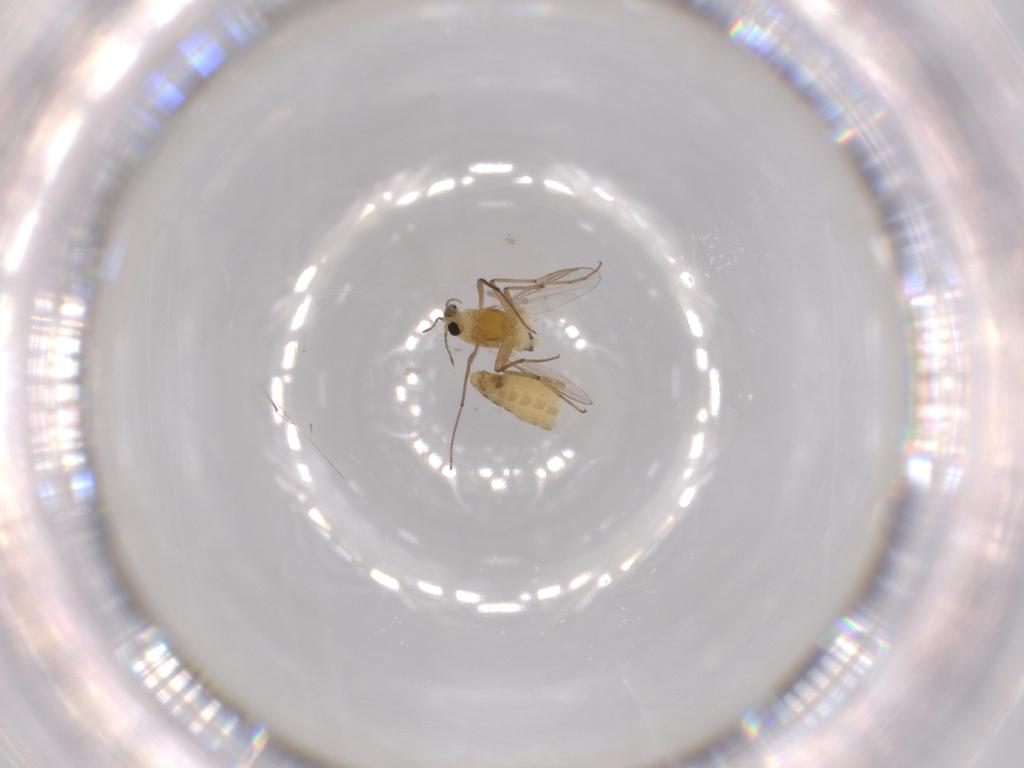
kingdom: Animalia
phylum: Arthropoda
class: Insecta
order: Diptera
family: Chironomidae
